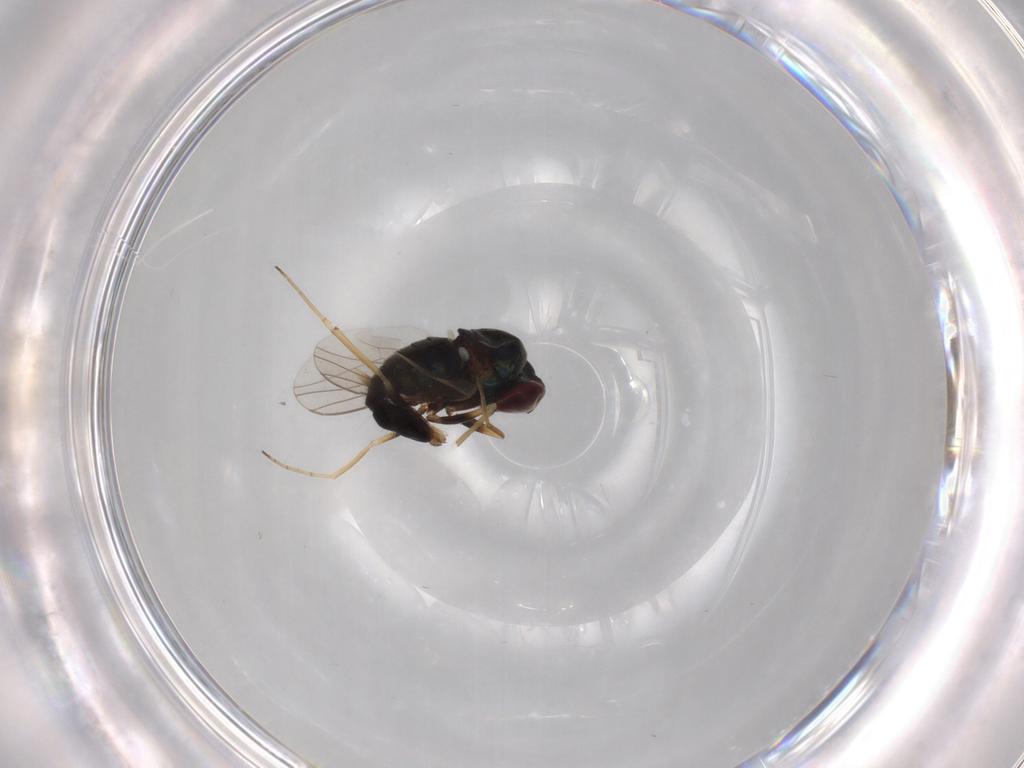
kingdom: Animalia
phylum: Arthropoda
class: Insecta
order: Diptera
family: Dolichopodidae
